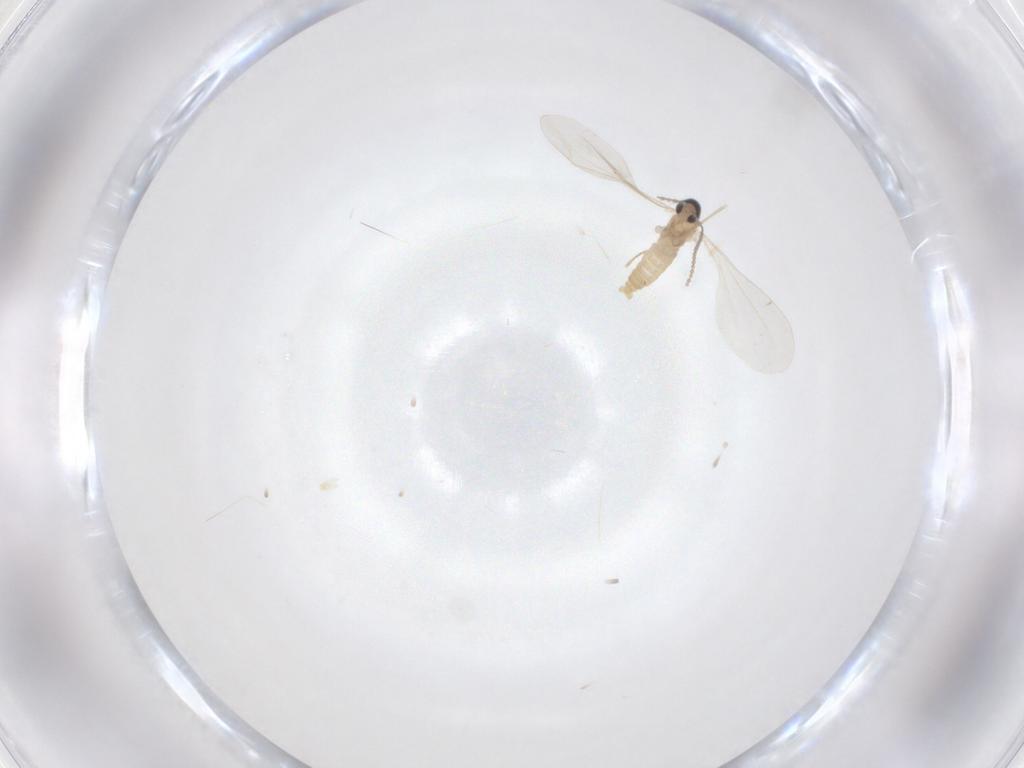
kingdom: Animalia
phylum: Arthropoda
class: Insecta
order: Diptera
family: Cecidomyiidae
